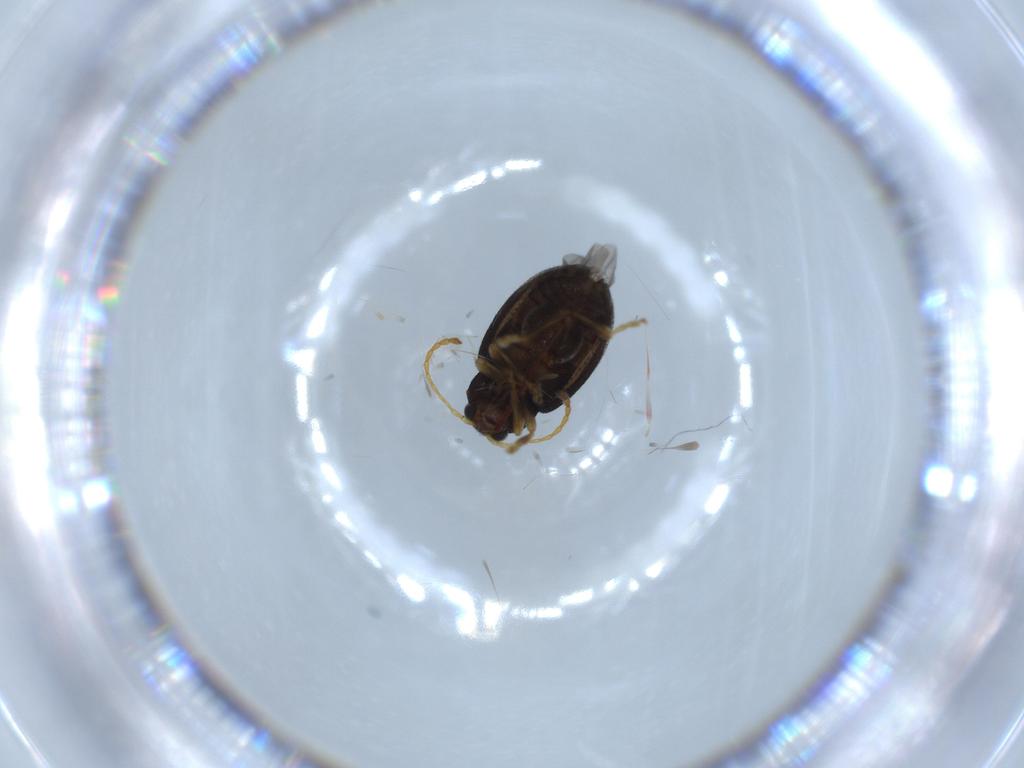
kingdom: Animalia
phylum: Arthropoda
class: Insecta
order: Coleoptera
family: Chrysomelidae
